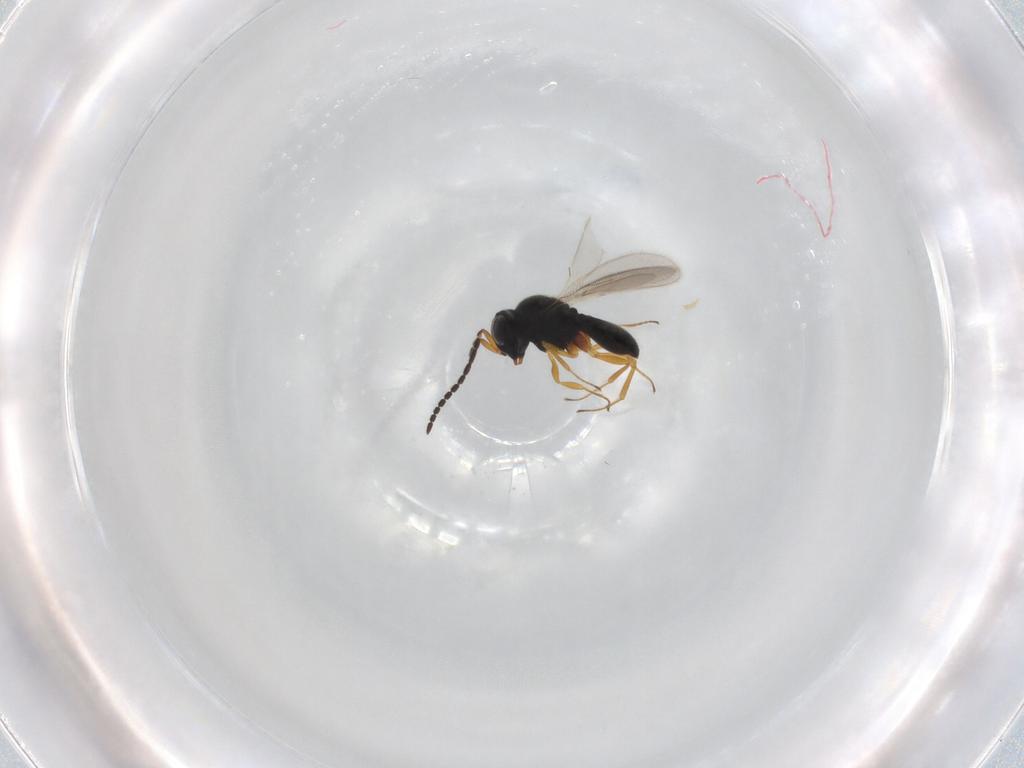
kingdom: Animalia
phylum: Arthropoda
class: Insecta
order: Hymenoptera
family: Scelionidae
